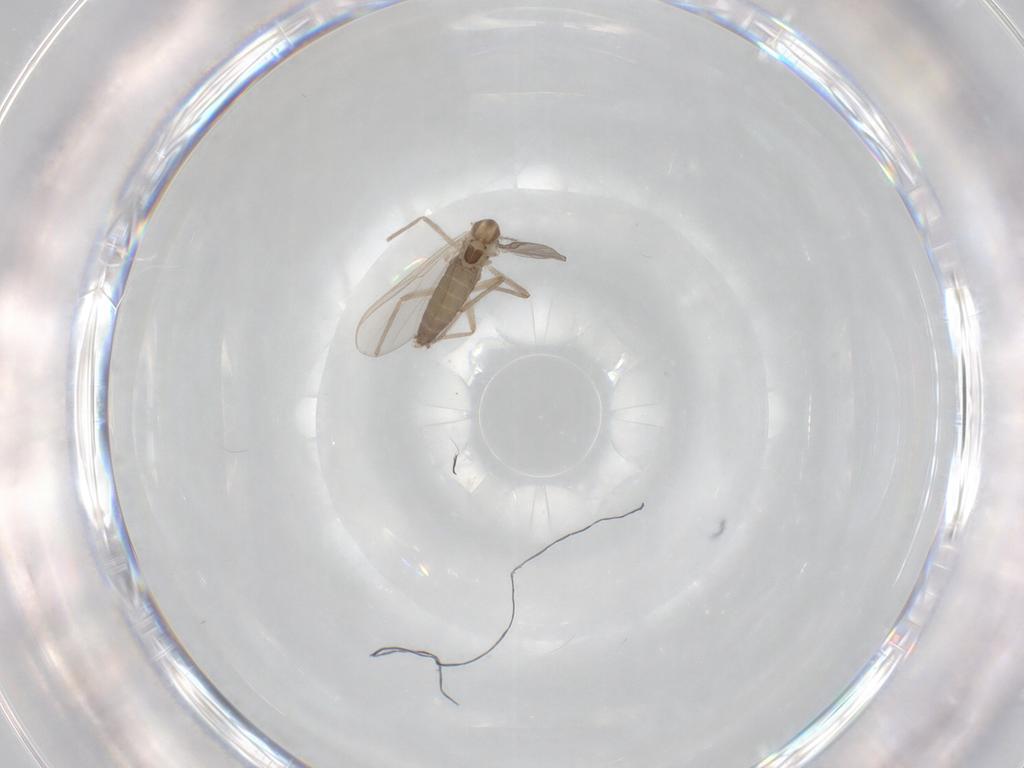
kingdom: Animalia
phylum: Arthropoda
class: Insecta
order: Diptera
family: Chironomidae
